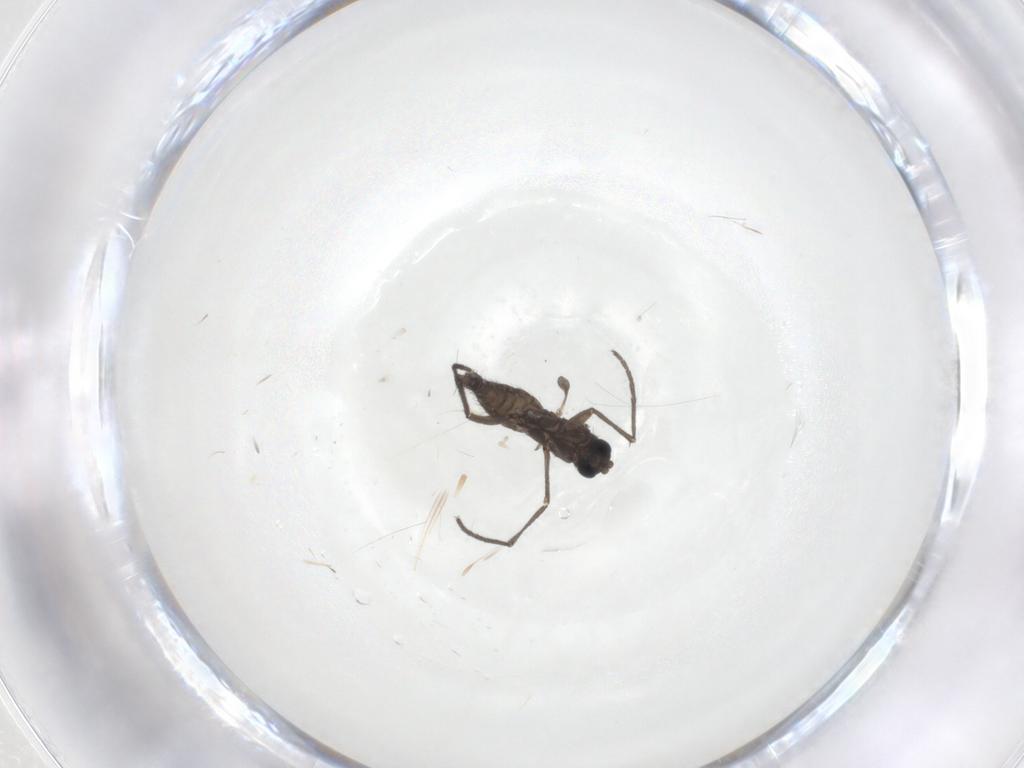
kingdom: Animalia
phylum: Arthropoda
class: Insecta
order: Diptera
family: Sciaridae
